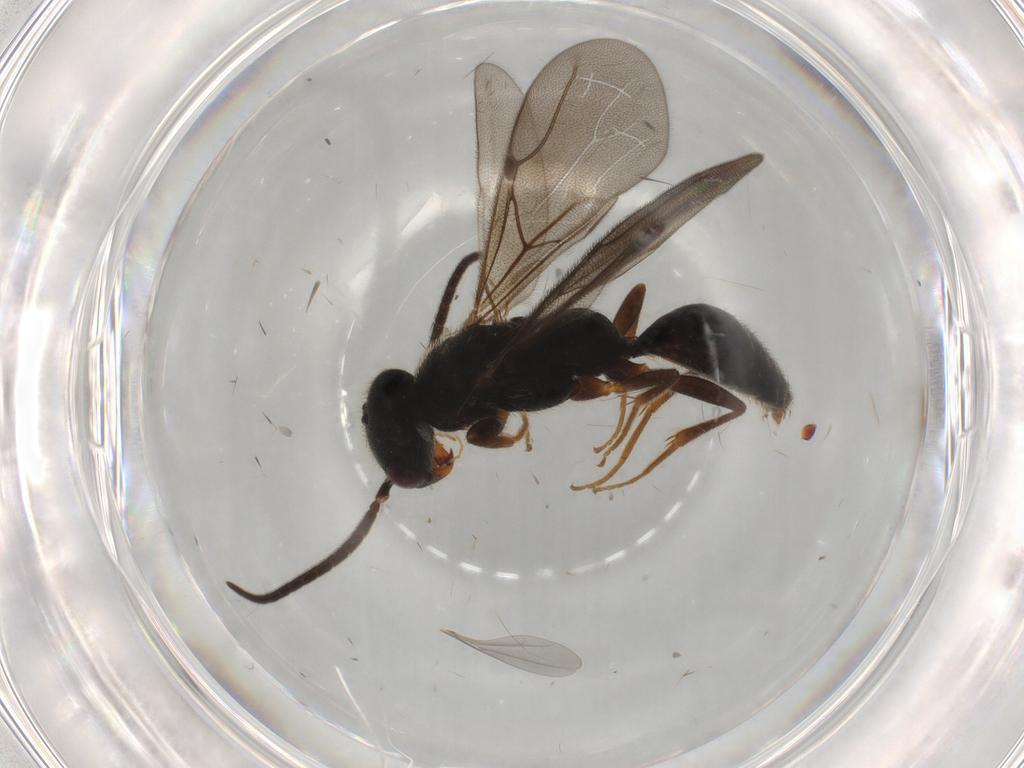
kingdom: Animalia
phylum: Arthropoda
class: Insecta
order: Hymenoptera
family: Bethylidae
